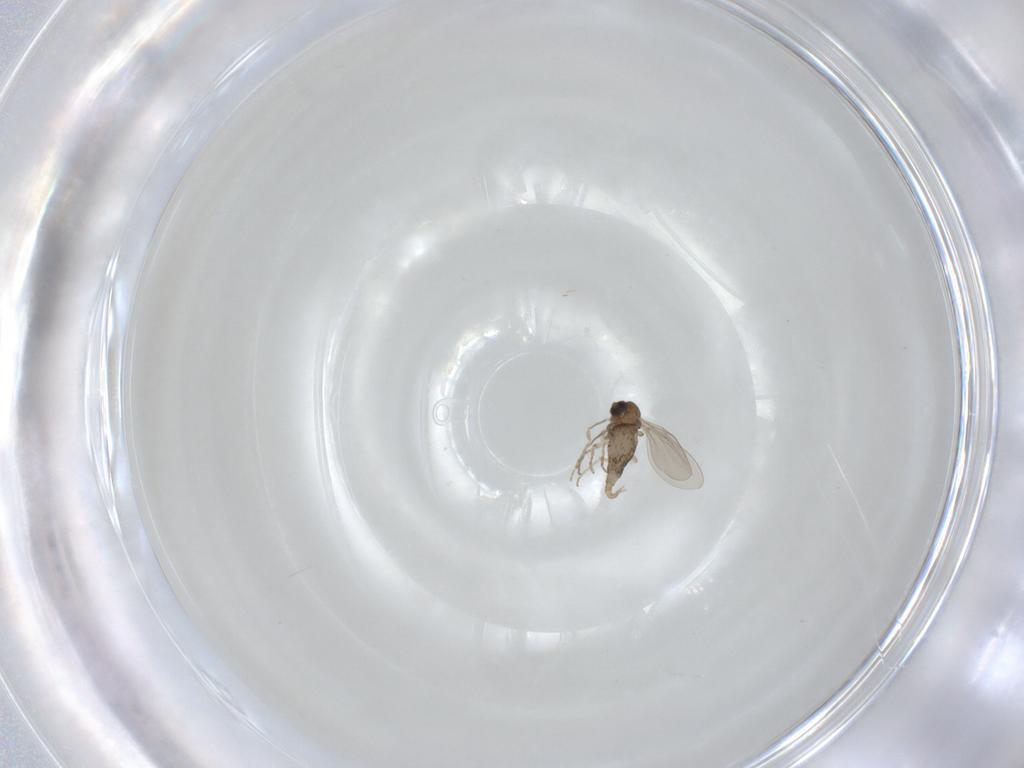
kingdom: Animalia
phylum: Arthropoda
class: Insecta
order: Diptera
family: Cecidomyiidae
